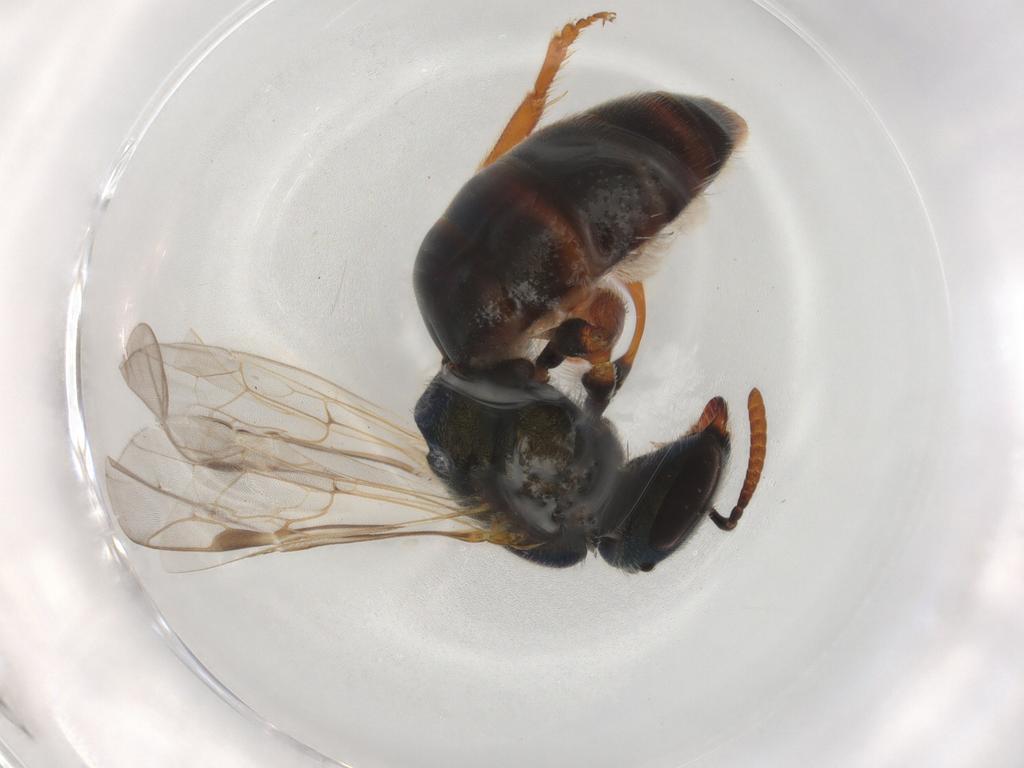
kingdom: Animalia
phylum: Arthropoda
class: Insecta
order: Hymenoptera
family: Halictidae
